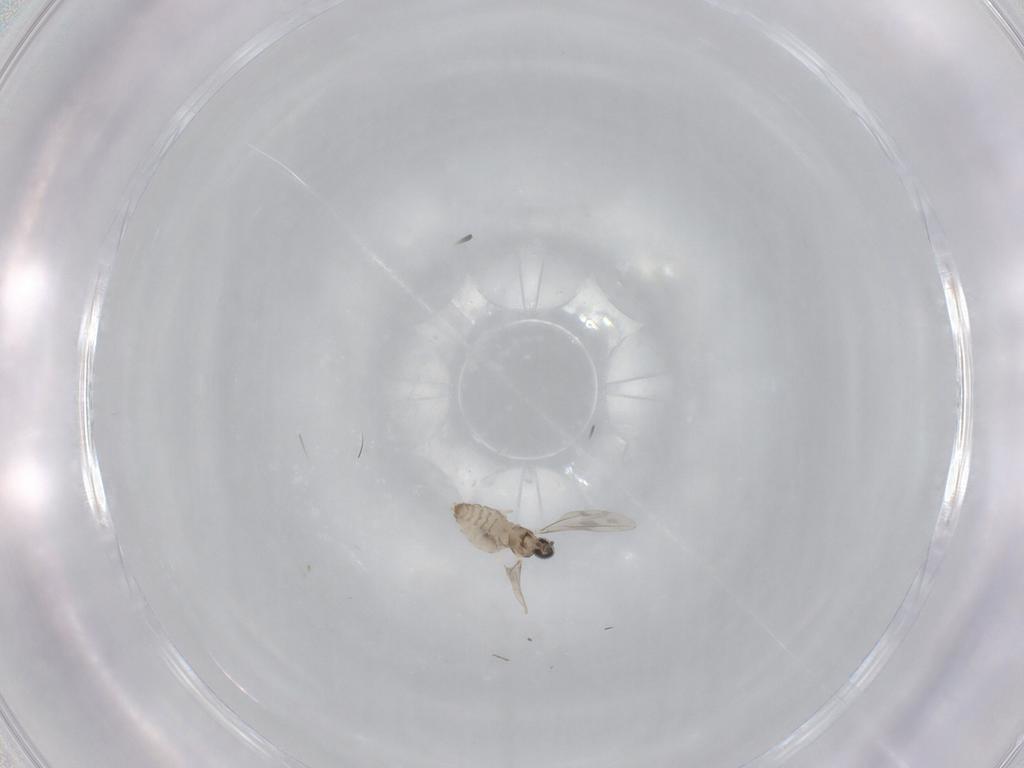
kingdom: Animalia
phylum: Arthropoda
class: Insecta
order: Diptera
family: Cecidomyiidae
